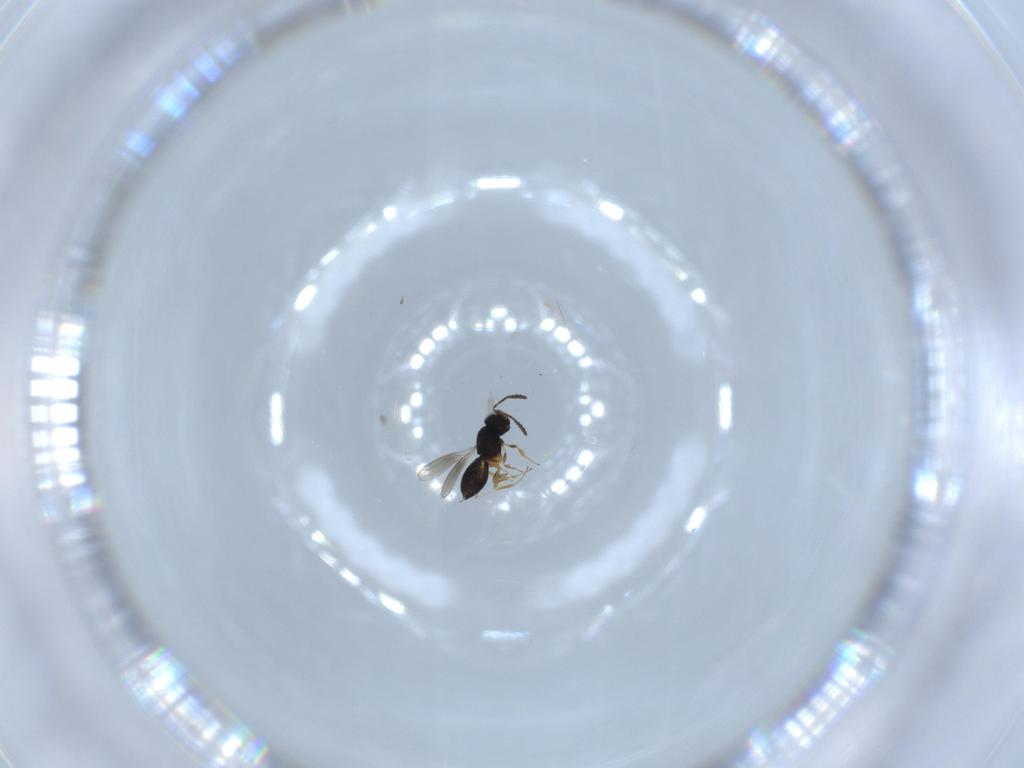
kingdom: Animalia
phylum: Arthropoda
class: Insecta
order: Hymenoptera
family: Scelionidae
